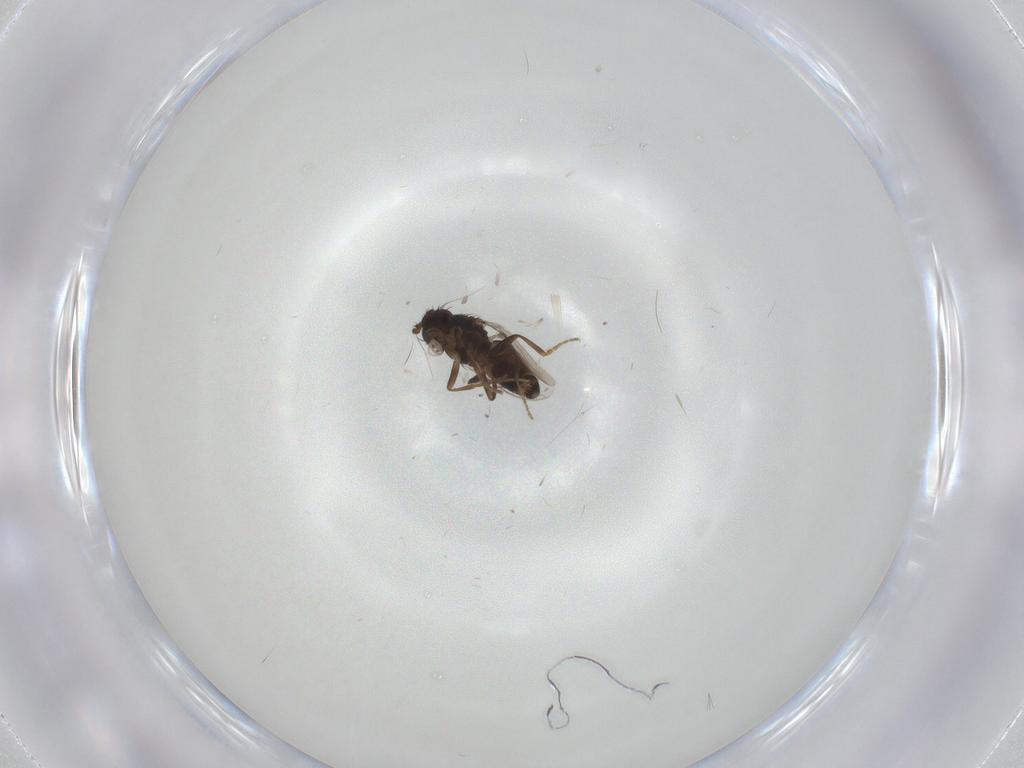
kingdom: Animalia
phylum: Arthropoda
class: Insecta
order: Diptera
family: Sphaeroceridae
